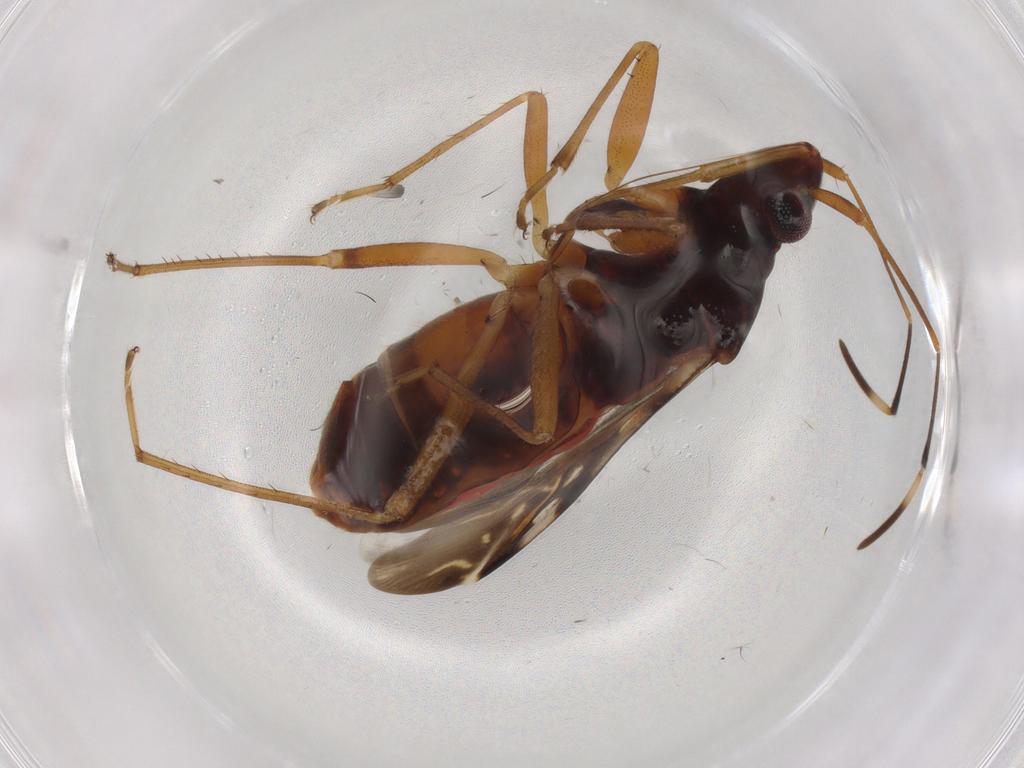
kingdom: Animalia
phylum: Arthropoda
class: Insecta
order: Hemiptera
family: Rhyparochromidae
